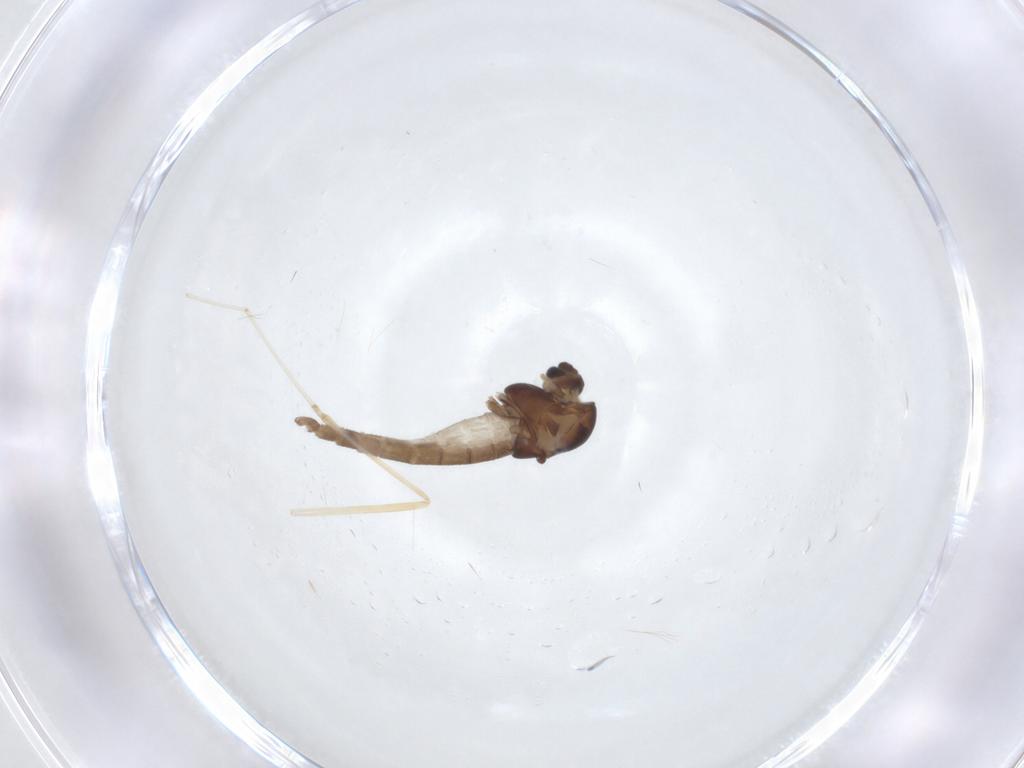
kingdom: Animalia
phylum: Arthropoda
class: Insecta
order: Diptera
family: Chironomidae
